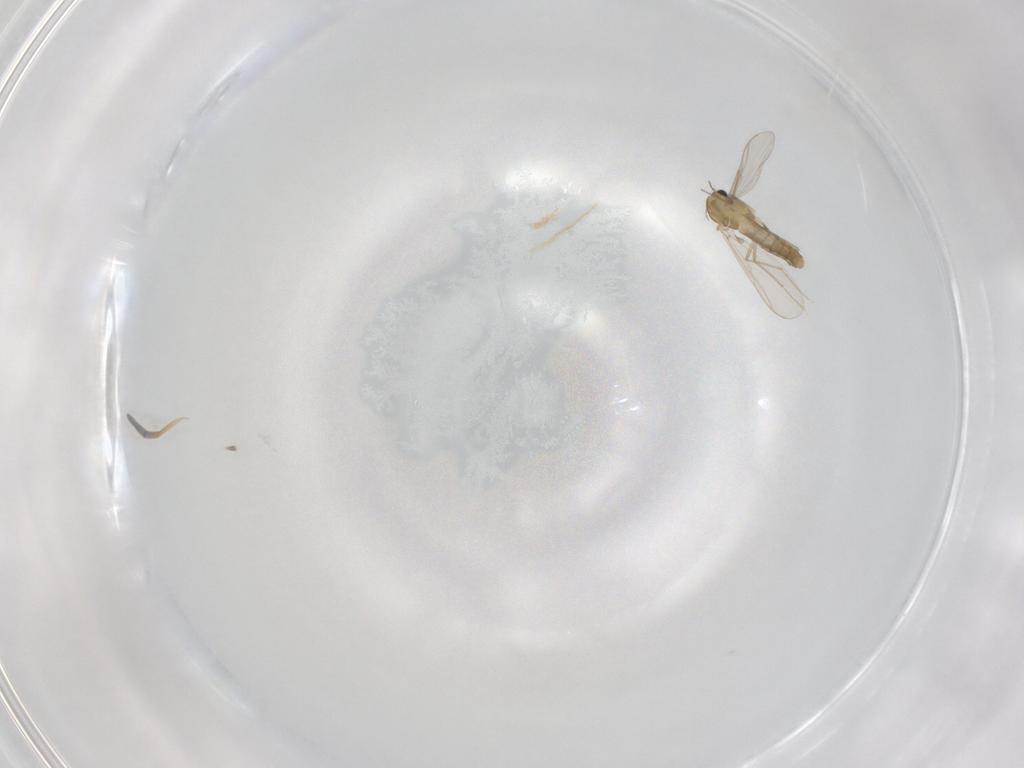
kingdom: Animalia
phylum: Arthropoda
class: Insecta
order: Diptera
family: Chironomidae
